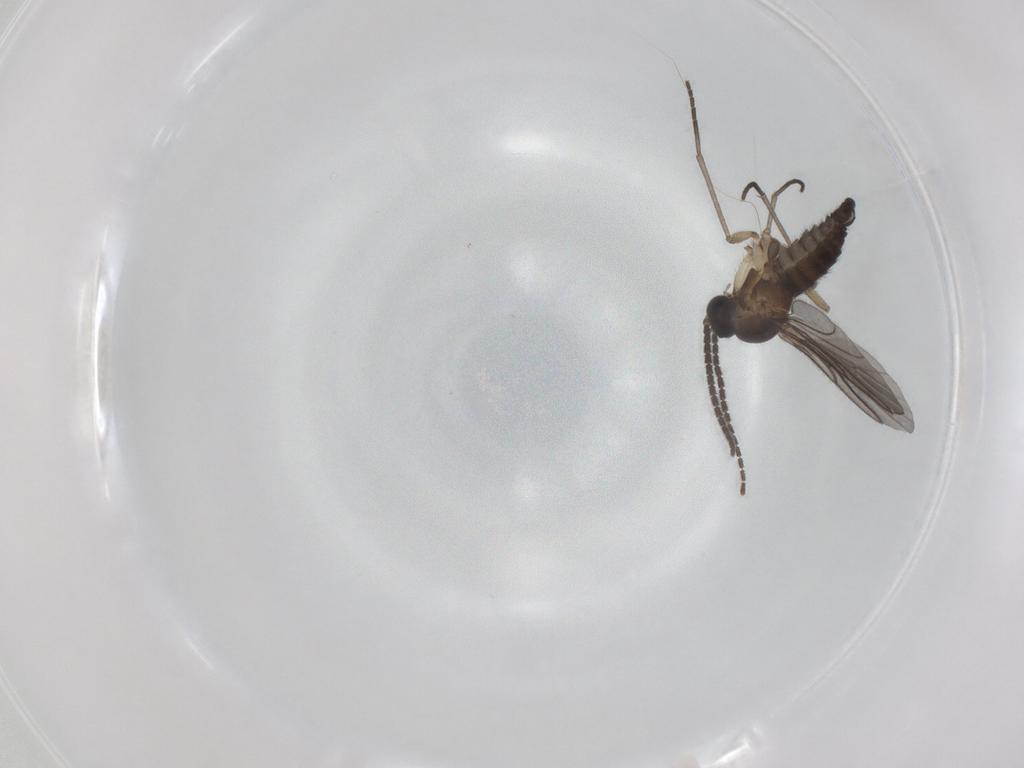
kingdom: Animalia
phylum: Arthropoda
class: Insecta
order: Diptera
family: Sciaridae
